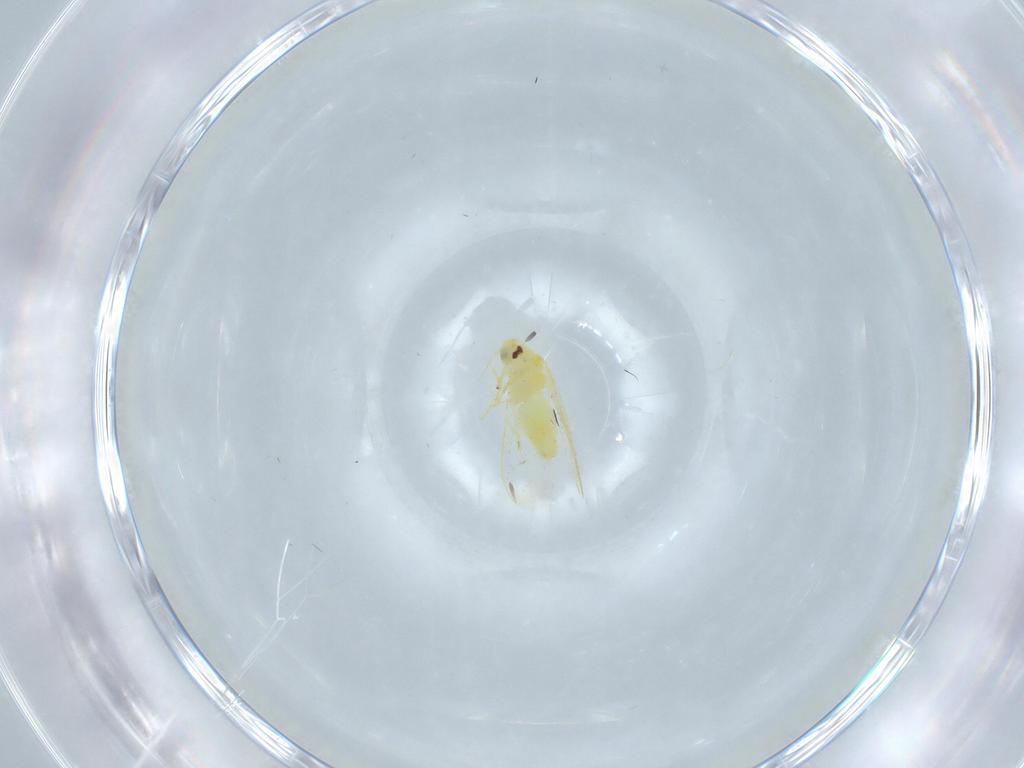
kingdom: Animalia
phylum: Arthropoda
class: Insecta
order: Hemiptera
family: Aleyrodidae
